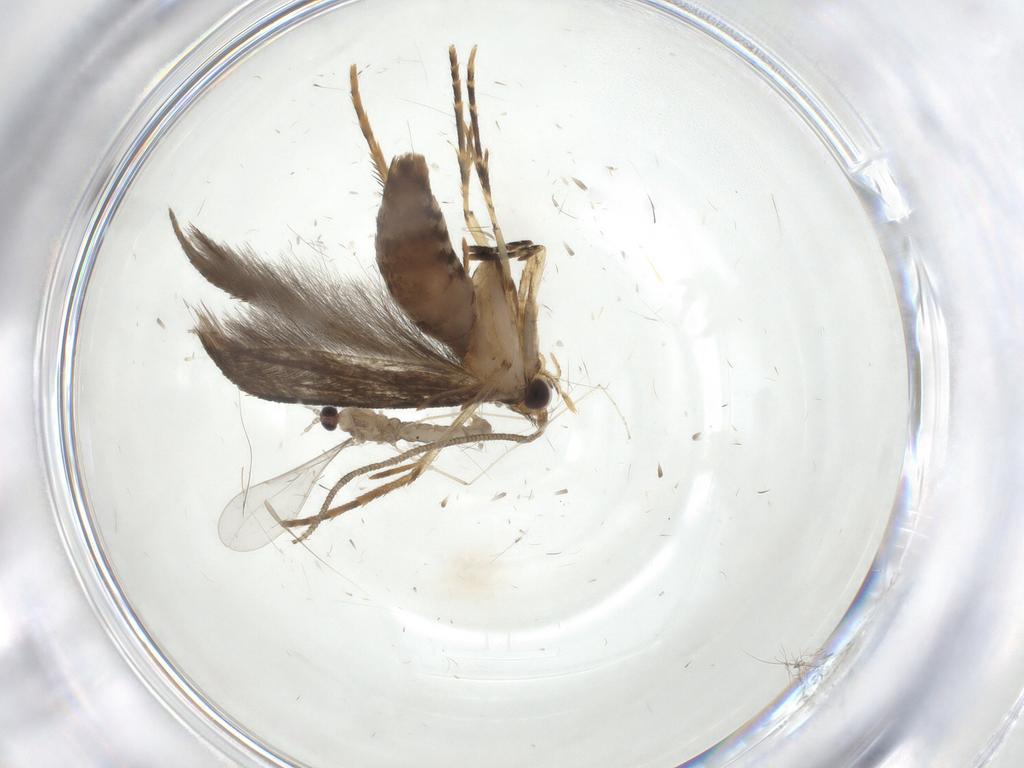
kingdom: Animalia
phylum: Arthropoda
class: Insecta
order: Lepidoptera
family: Tineidae
